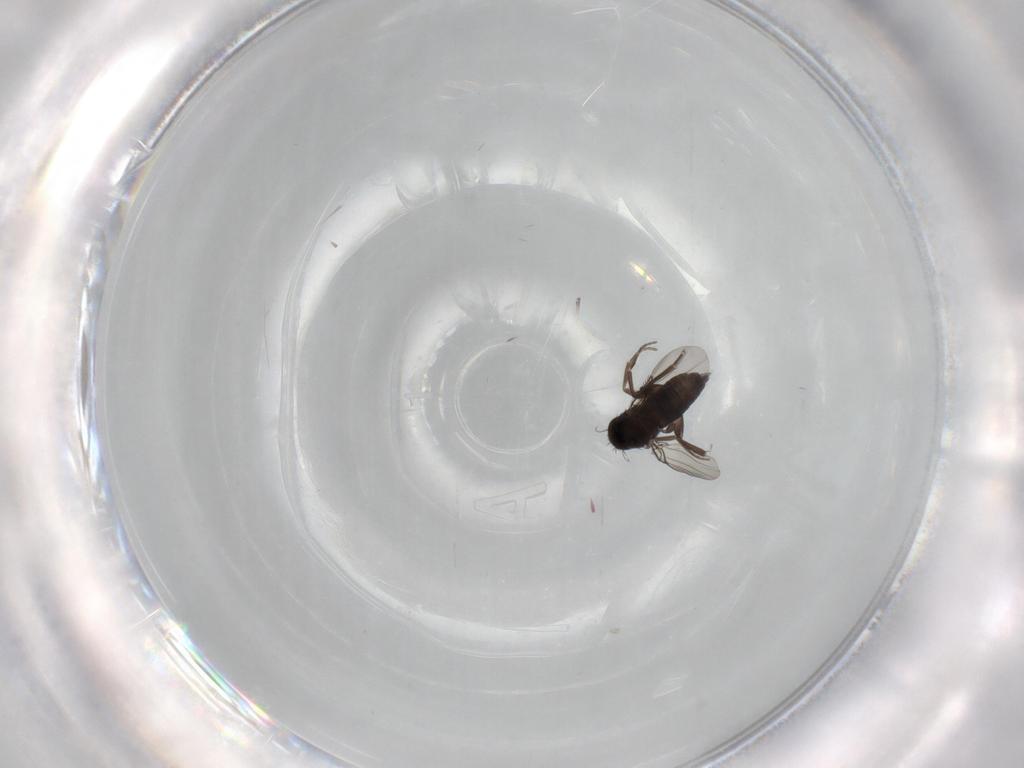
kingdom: Animalia
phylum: Arthropoda
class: Insecta
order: Diptera
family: Phoridae
